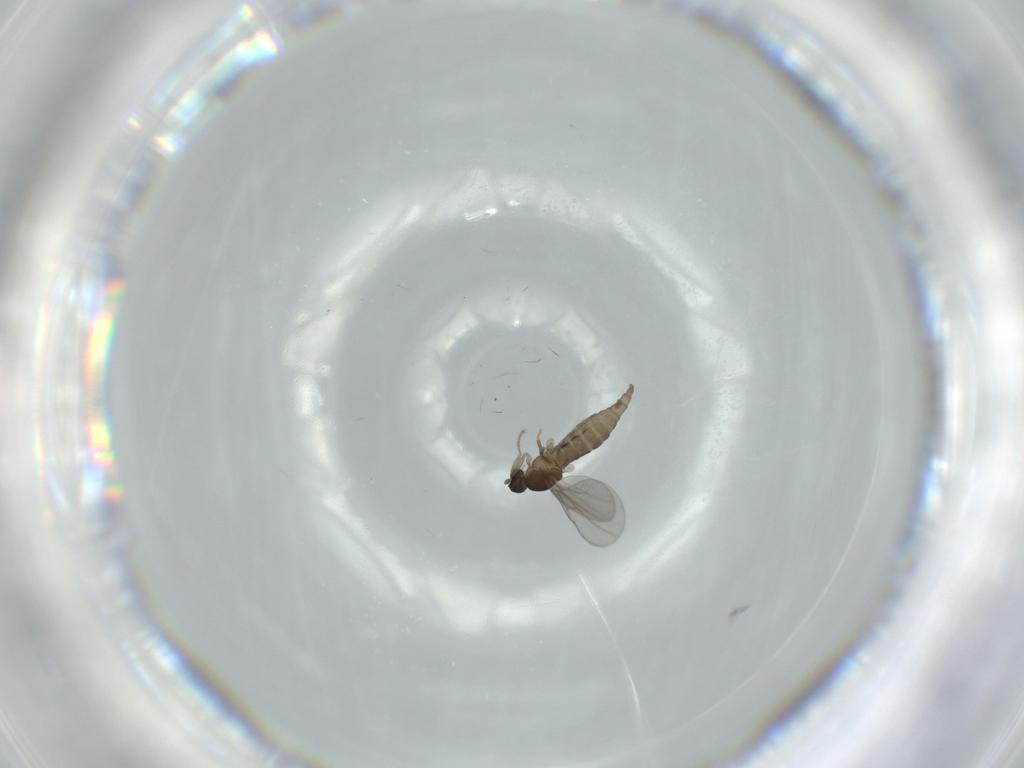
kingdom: Animalia
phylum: Arthropoda
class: Insecta
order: Diptera
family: Cecidomyiidae
